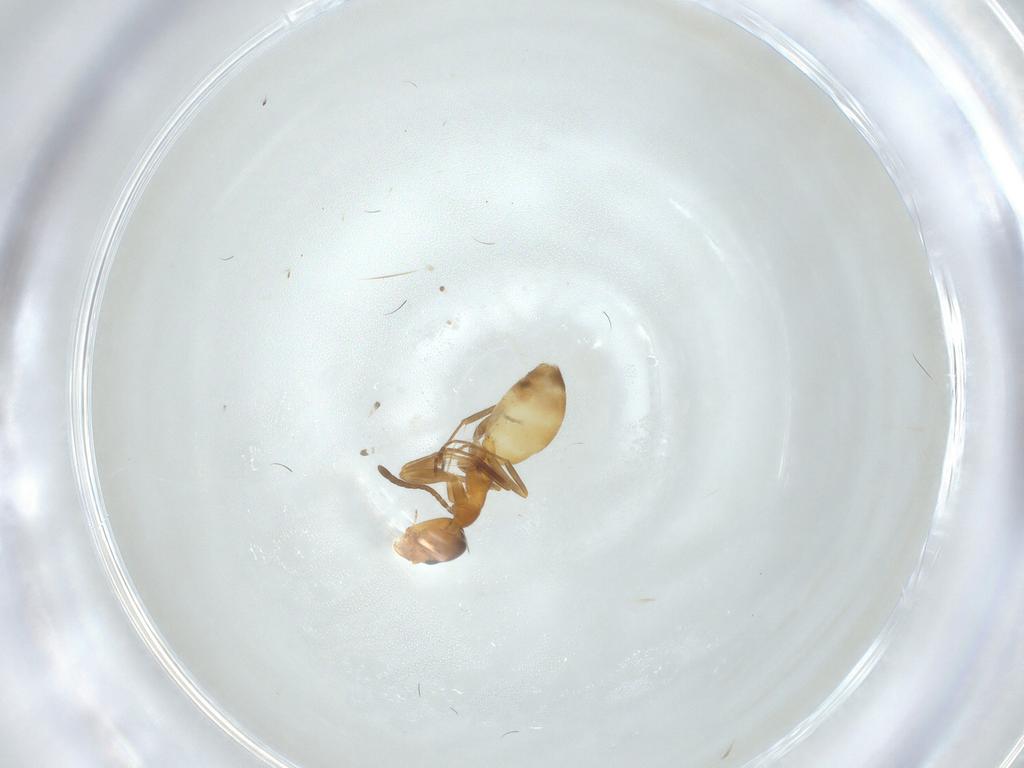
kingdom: Animalia
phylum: Arthropoda
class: Insecta
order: Hymenoptera
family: Formicidae
